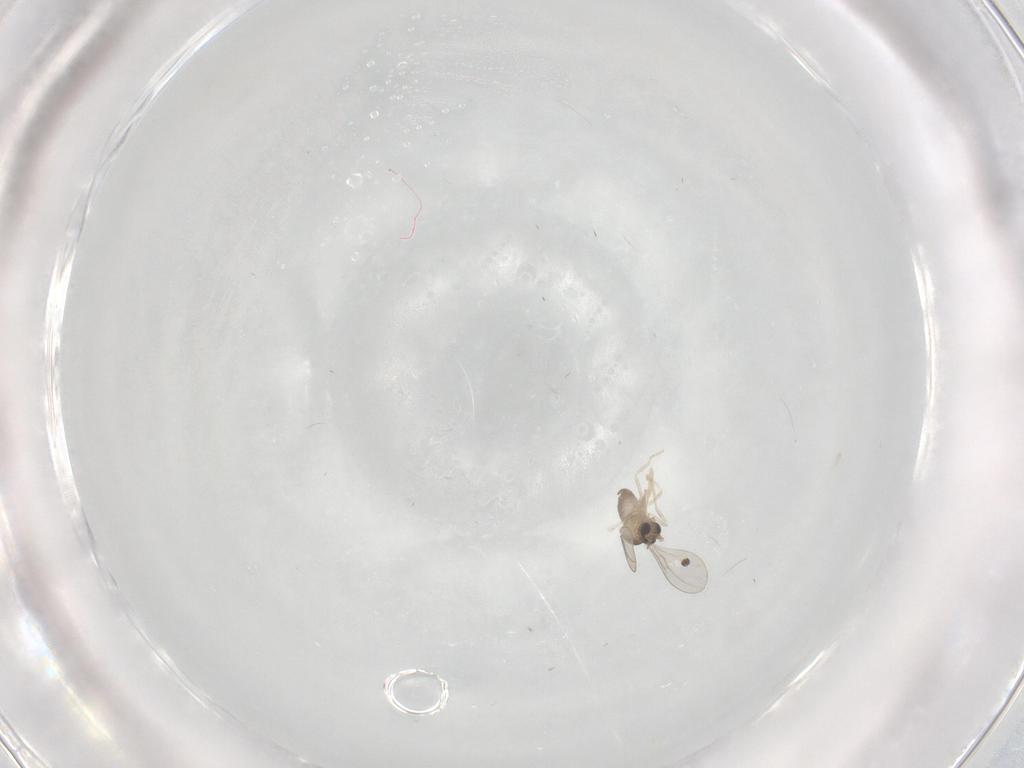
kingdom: Animalia
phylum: Arthropoda
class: Insecta
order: Diptera
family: Cecidomyiidae
